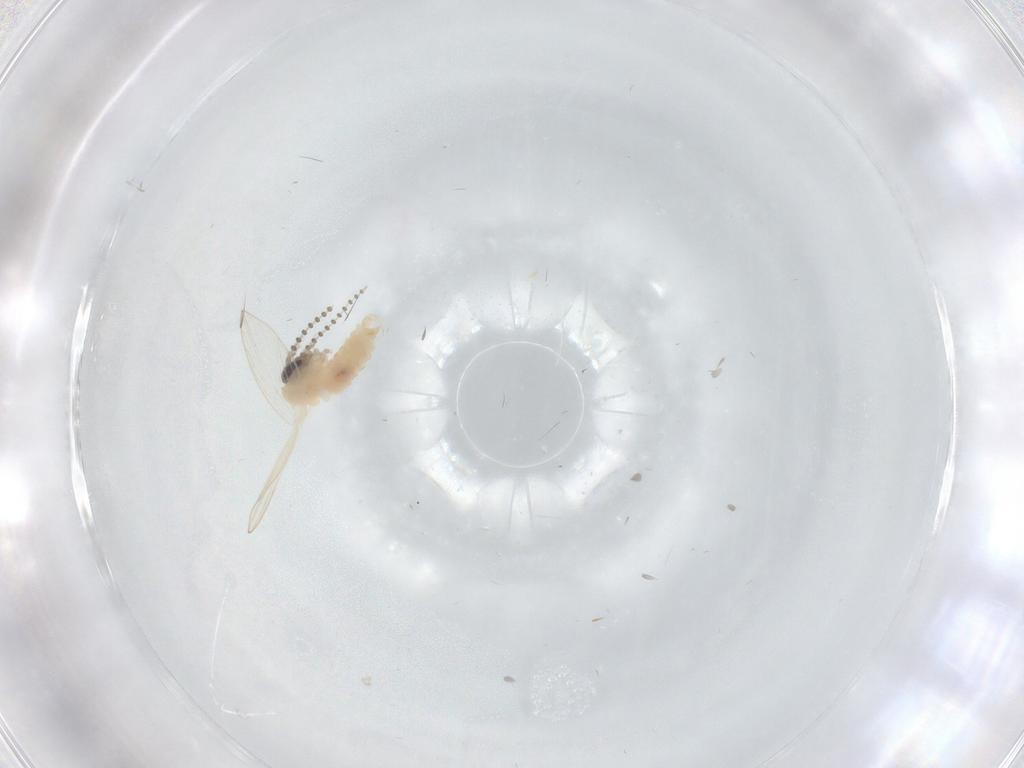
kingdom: Animalia
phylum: Arthropoda
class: Insecta
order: Diptera
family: Psychodidae
